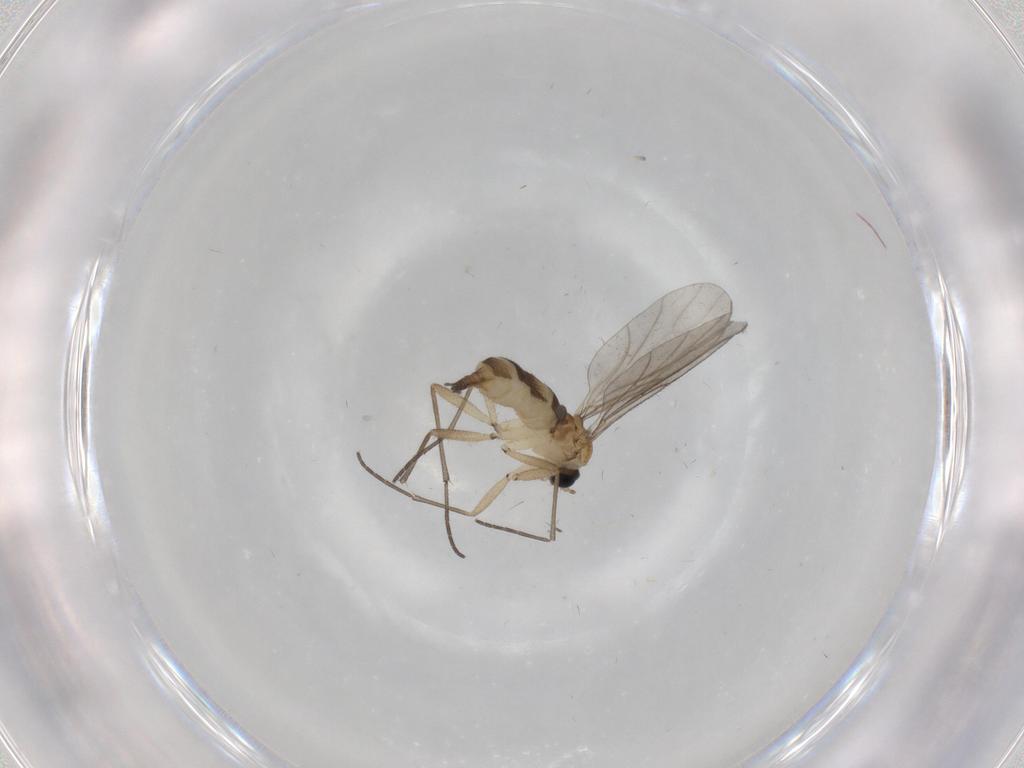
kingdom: Animalia
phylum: Arthropoda
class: Insecta
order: Diptera
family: Sciaridae
